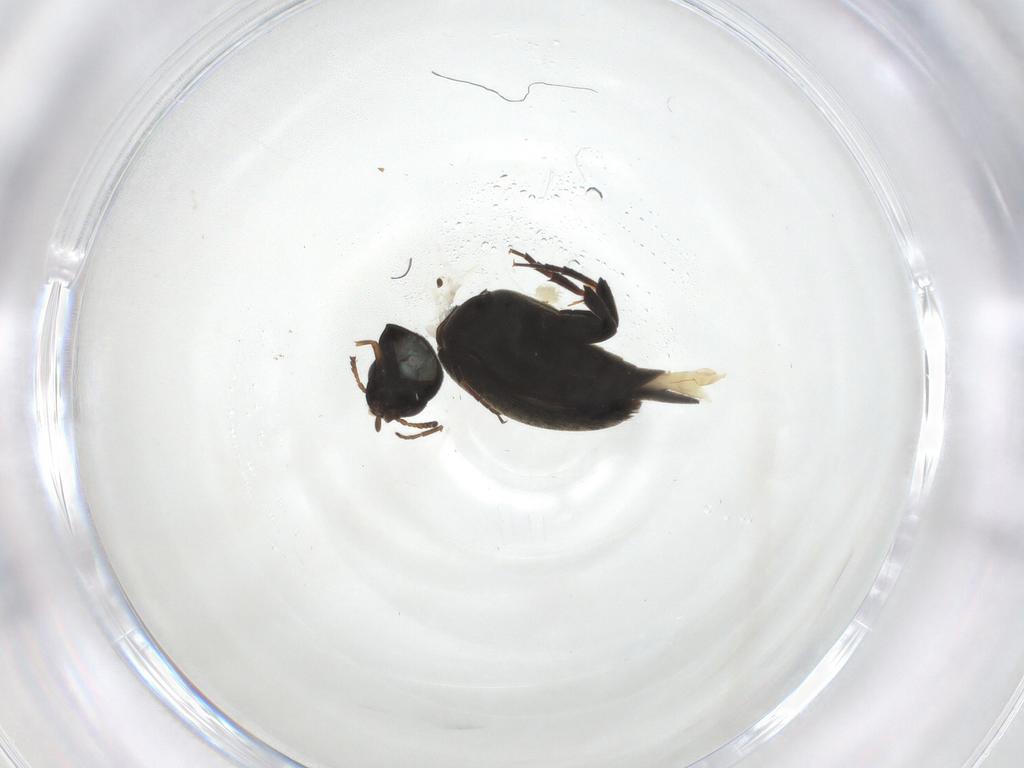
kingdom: Animalia
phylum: Arthropoda
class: Insecta
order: Coleoptera
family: Mordellidae
